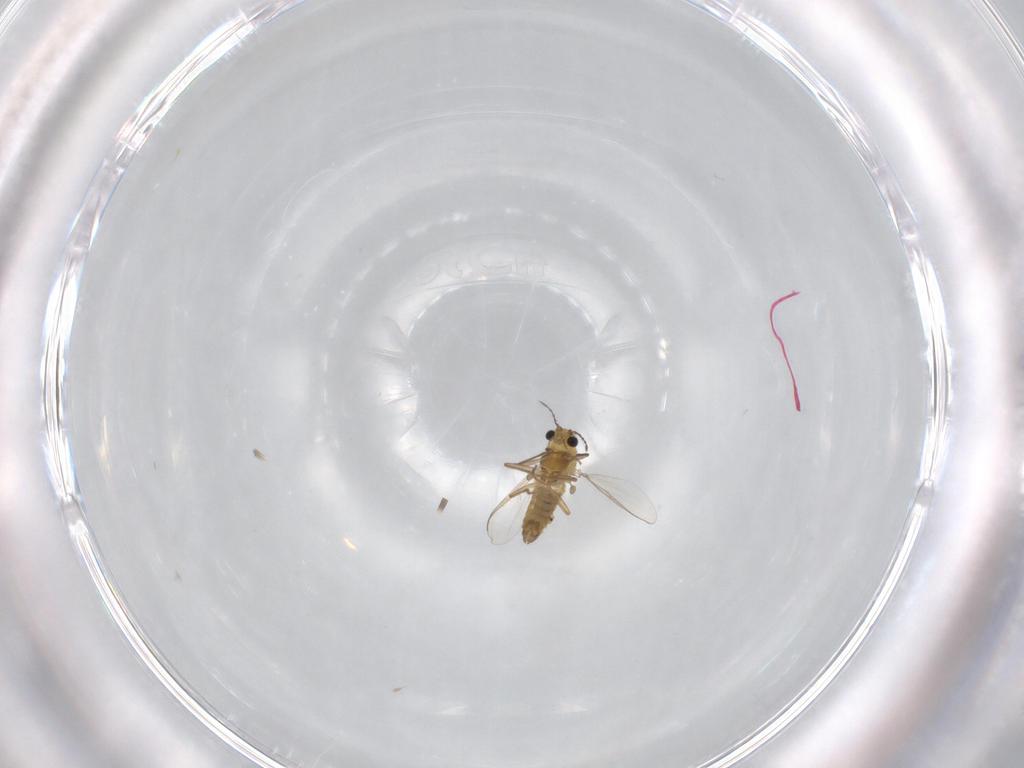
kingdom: Animalia
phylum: Arthropoda
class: Insecta
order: Diptera
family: Chironomidae
